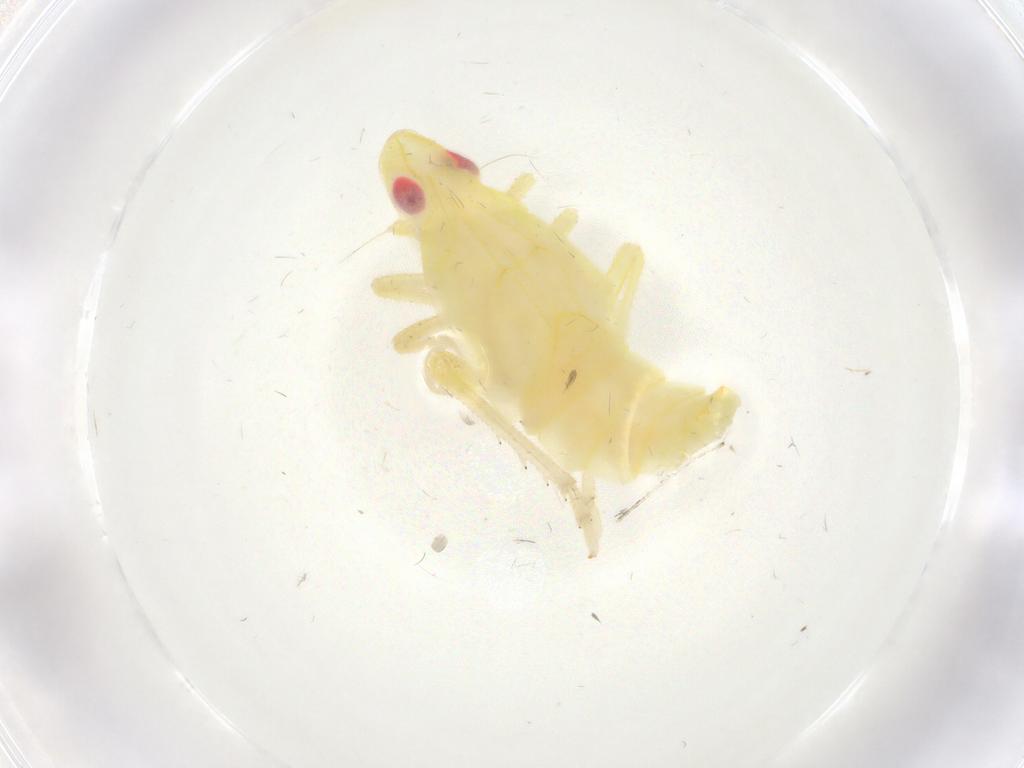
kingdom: Animalia
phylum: Arthropoda
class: Insecta
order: Hemiptera
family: Tropiduchidae
